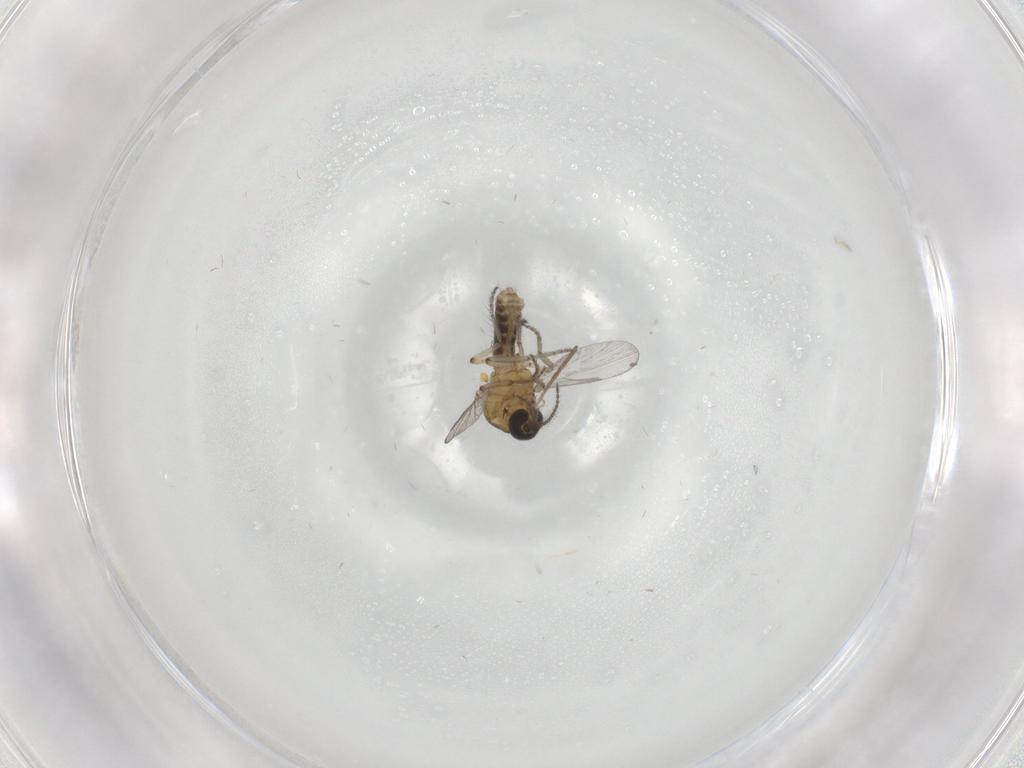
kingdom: Animalia
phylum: Arthropoda
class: Insecta
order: Diptera
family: Ceratopogonidae
